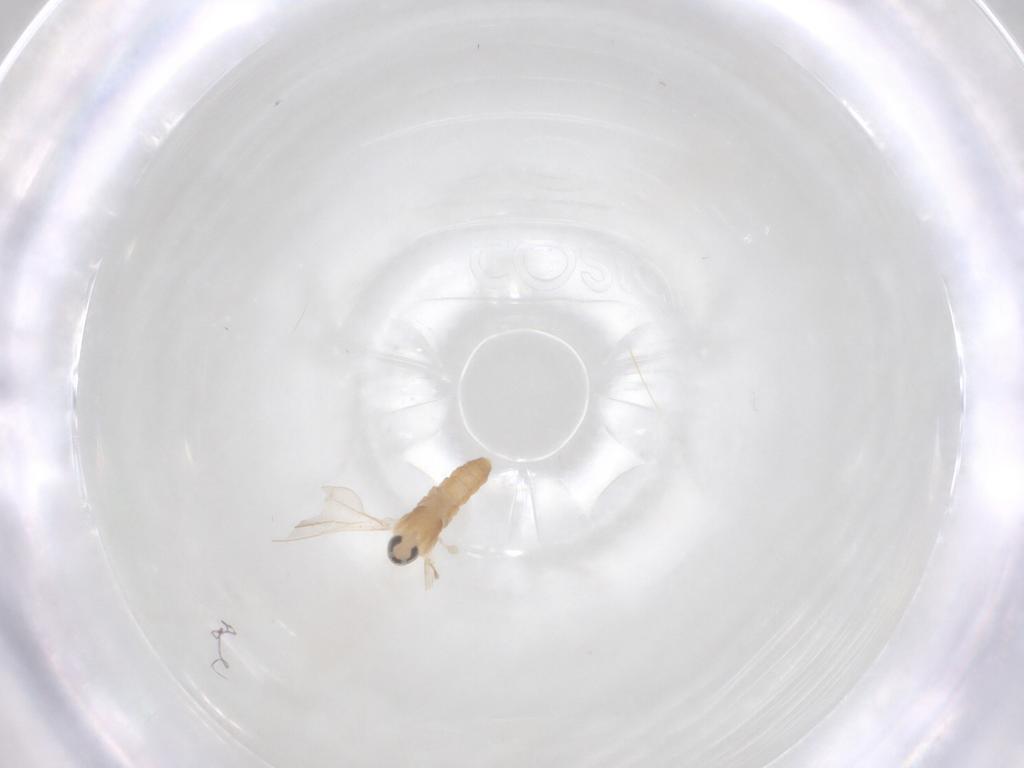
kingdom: Animalia
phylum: Arthropoda
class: Insecta
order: Diptera
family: Cecidomyiidae
